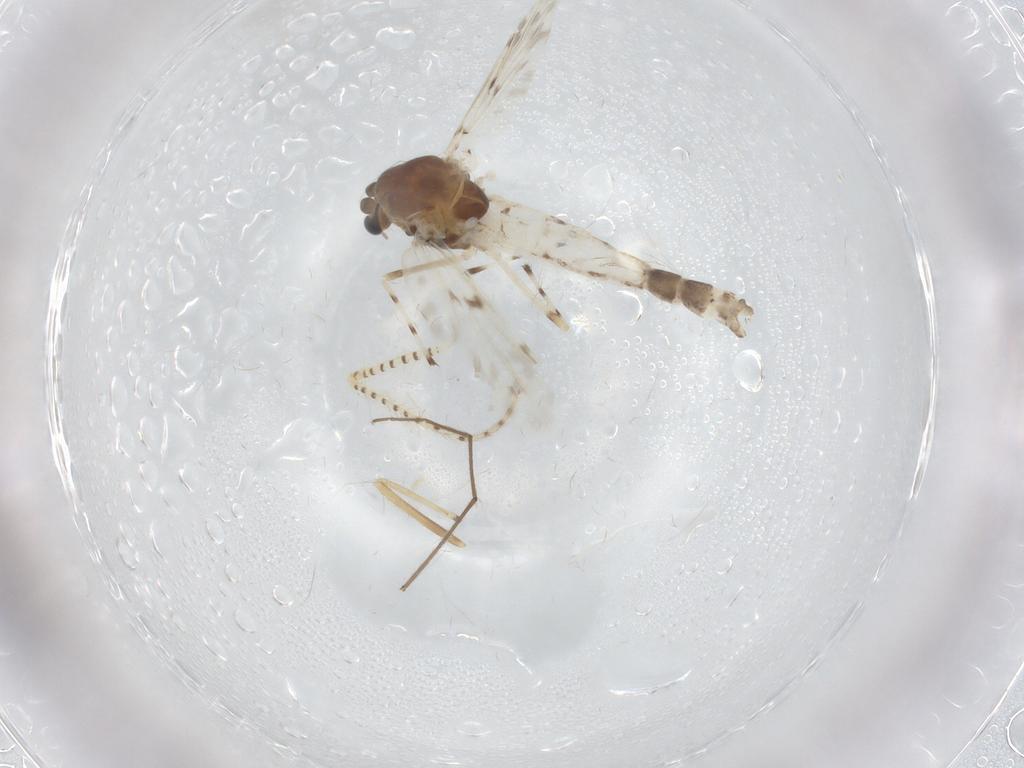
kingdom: Animalia
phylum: Arthropoda
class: Insecta
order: Diptera
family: Chironomidae
